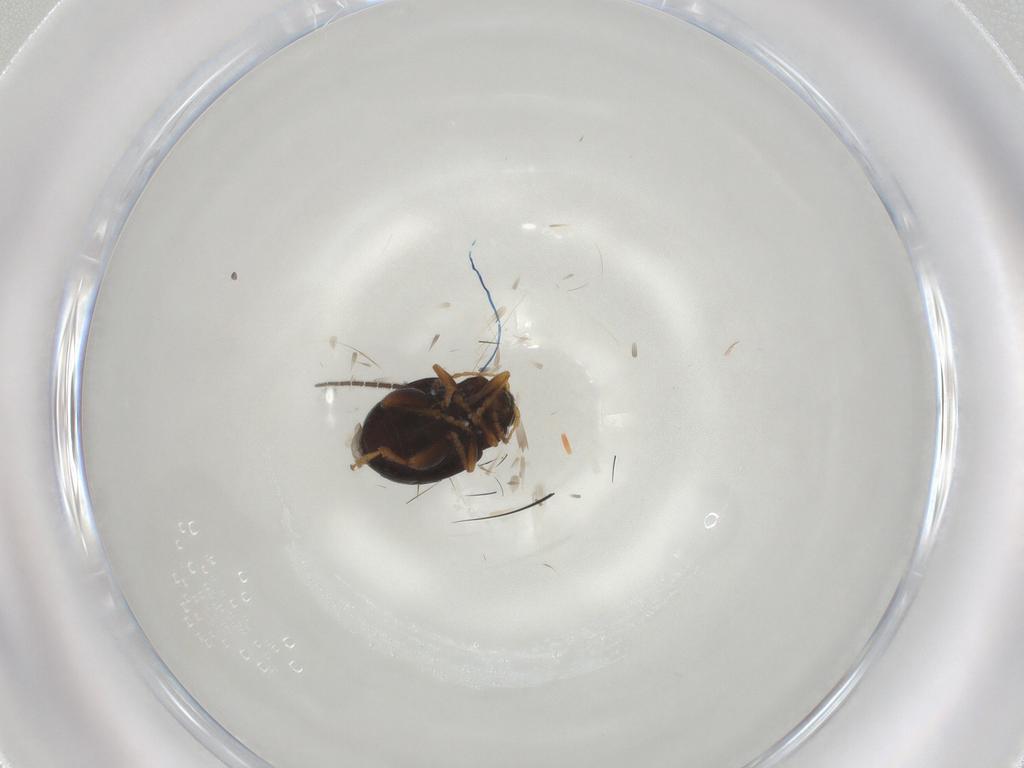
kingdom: Animalia
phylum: Arthropoda
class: Insecta
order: Coleoptera
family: Chrysomelidae
